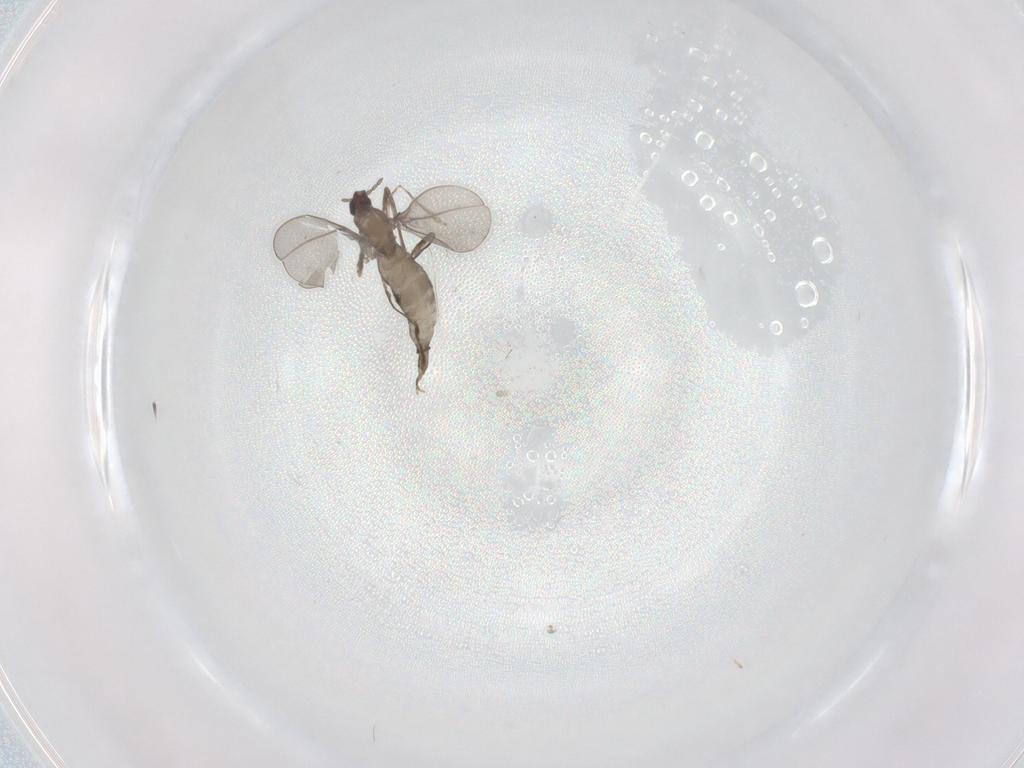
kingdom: Animalia
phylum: Arthropoda
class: Insecta
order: Diptera
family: Cecidomyiidae
